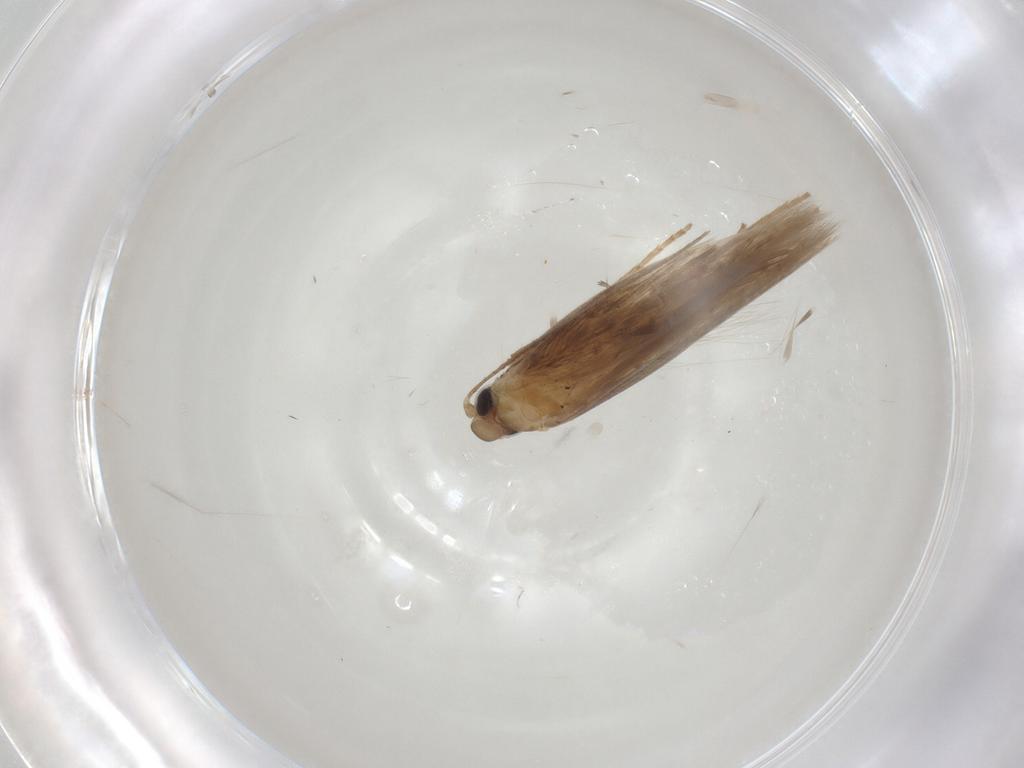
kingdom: Animalia
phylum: Arthropoda
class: Insecta
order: Lepidoptera
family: Tischeriidae
